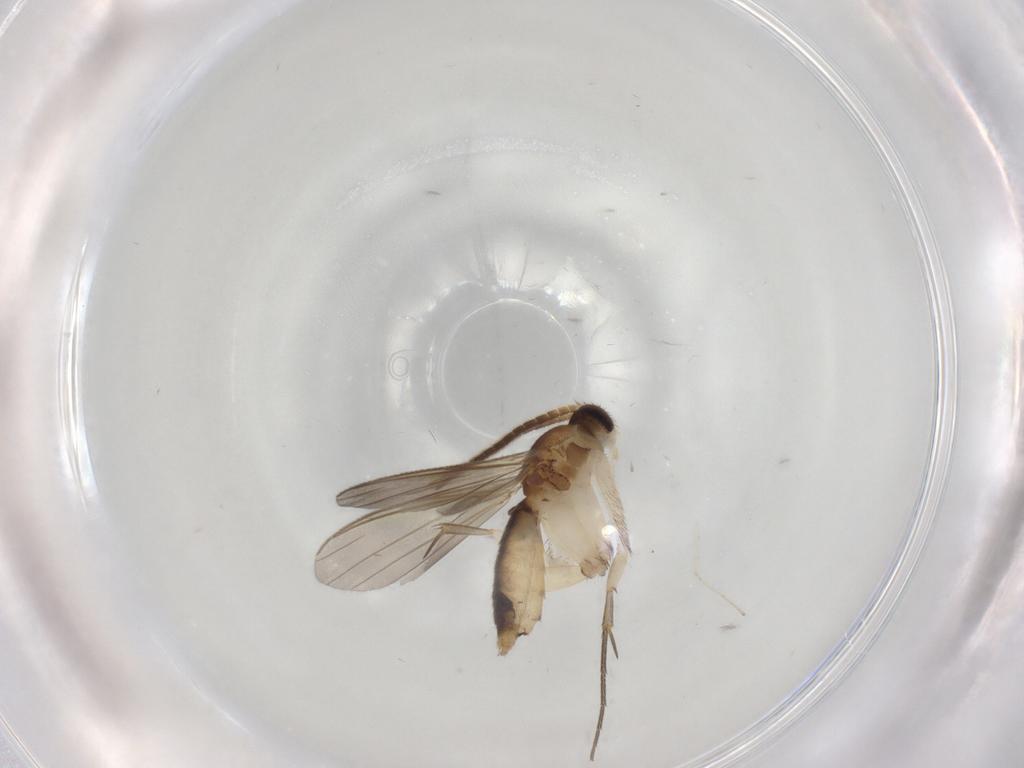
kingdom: Animalia
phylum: Arthropoda
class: Insecta
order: Diptera
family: Mycetophilidae
